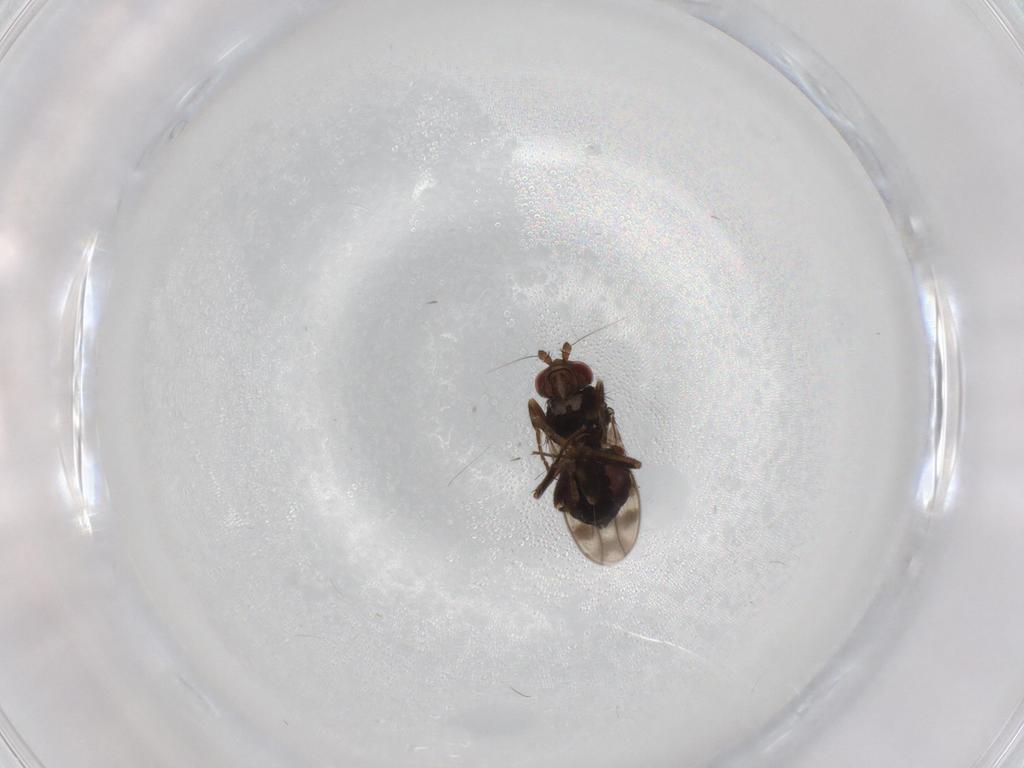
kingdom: Animalia
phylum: Arthropoda
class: Insecta
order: Diptera
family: Sphaeroceridae
